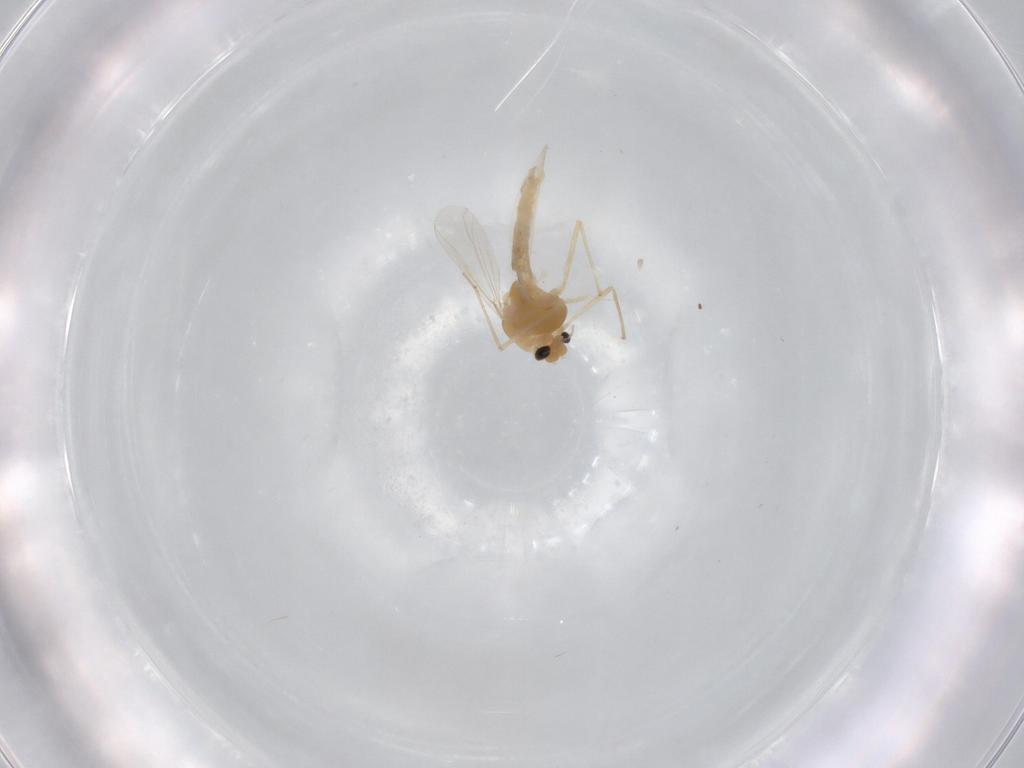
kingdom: Animalia
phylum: Arthropoda
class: Insecta
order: Diptera
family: Chironomidae
